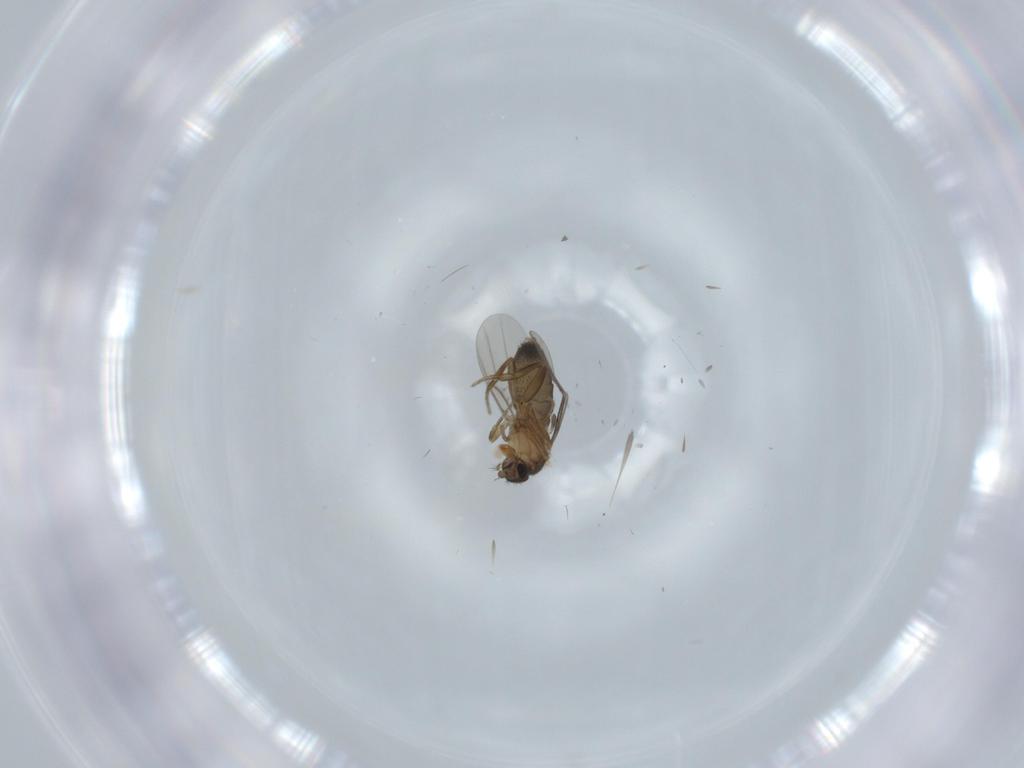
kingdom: Animalia
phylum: Arthropoda
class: Insecta
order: Diptera
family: Phoridae
